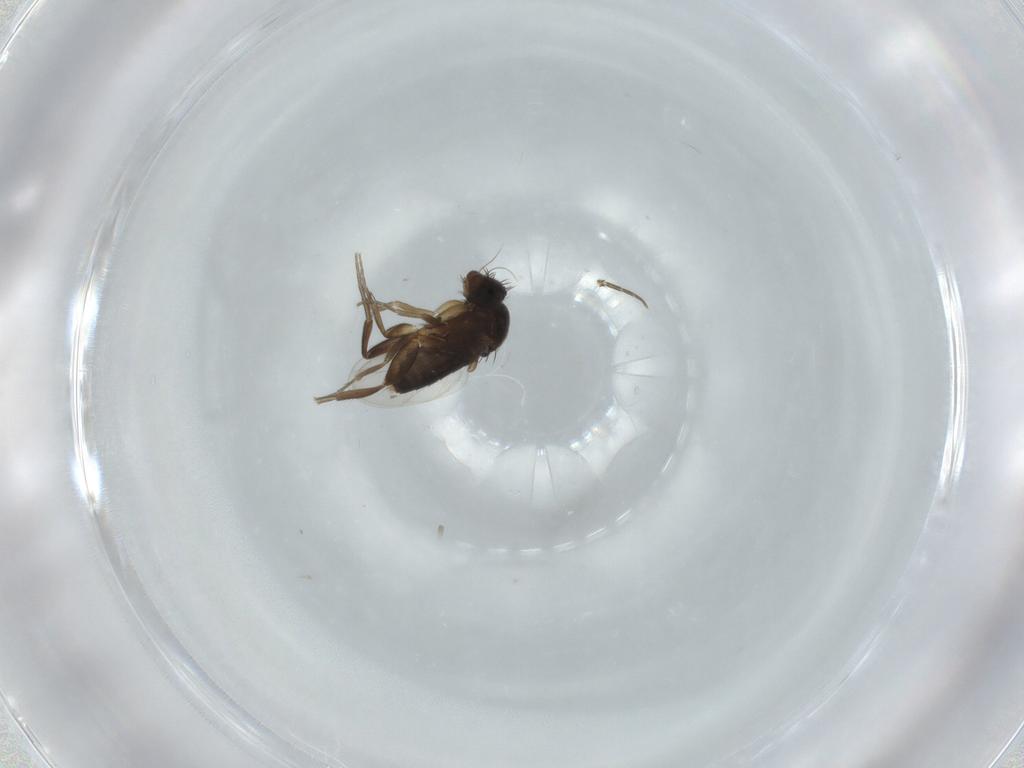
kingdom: Animalia
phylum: Arthropoda
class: Insecta
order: Diptera
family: Phoridae
